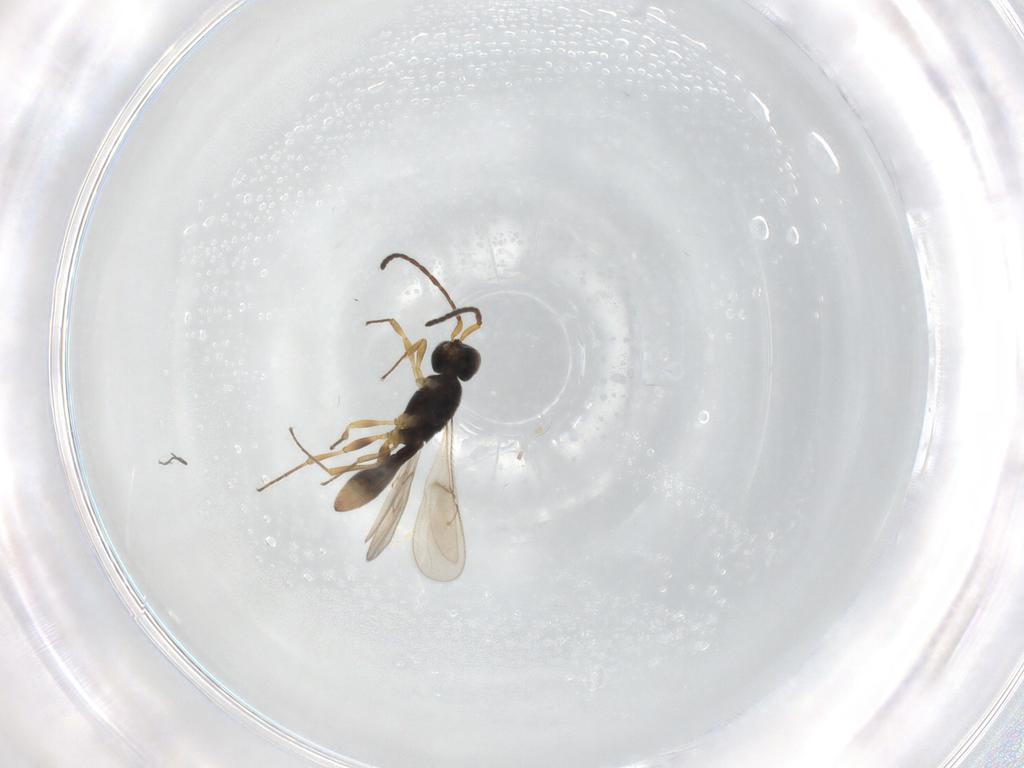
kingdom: Animalia
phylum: Arthropoda
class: Insecta
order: Hymenoptera
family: Scelionidae
